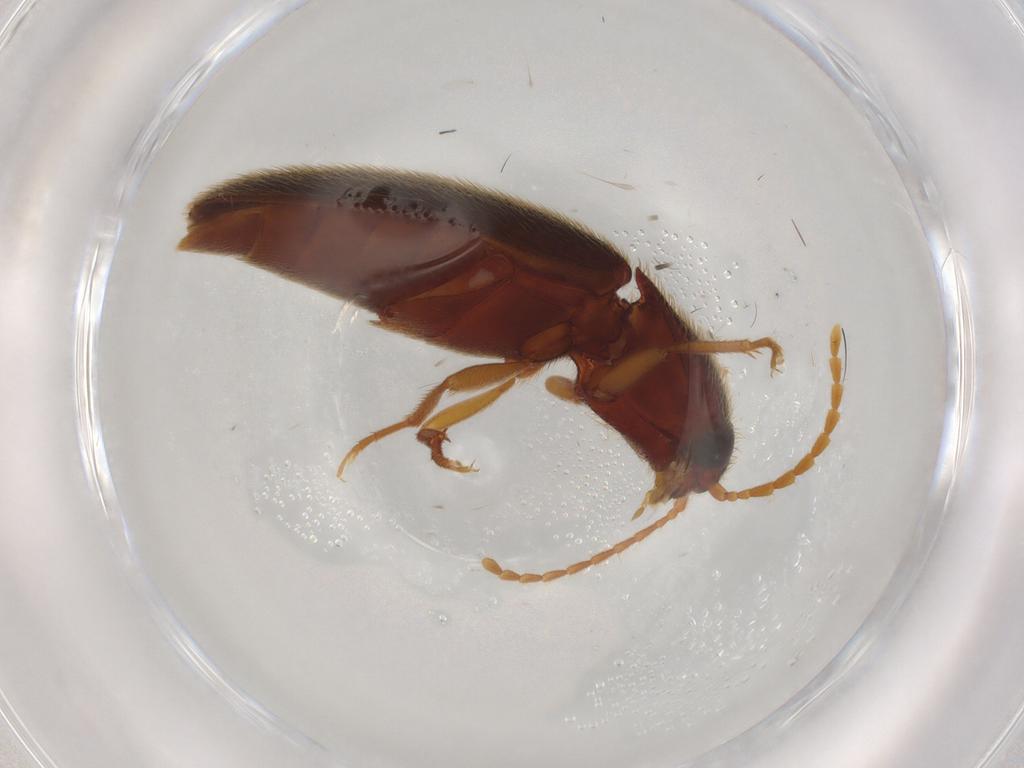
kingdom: Animalia
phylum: Arthropoda
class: Insecta
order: Coleoptera
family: Elateridae
